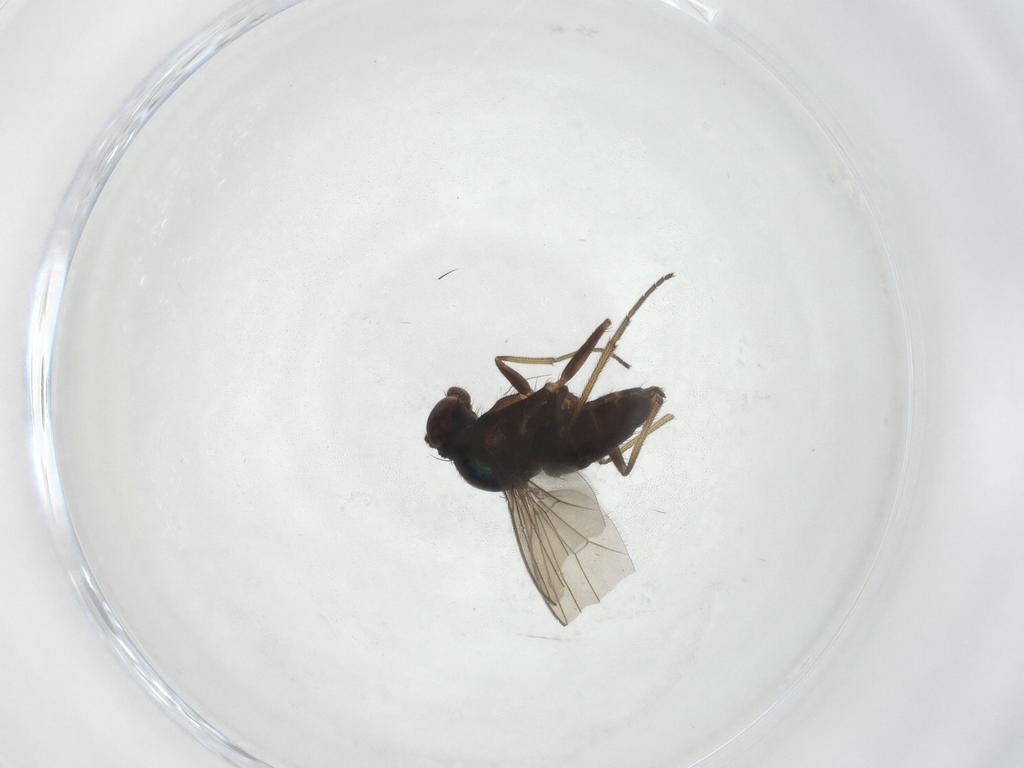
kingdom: Animalia
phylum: Arthropoda
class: Insecta
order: Diptera
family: Dolichopodidae
